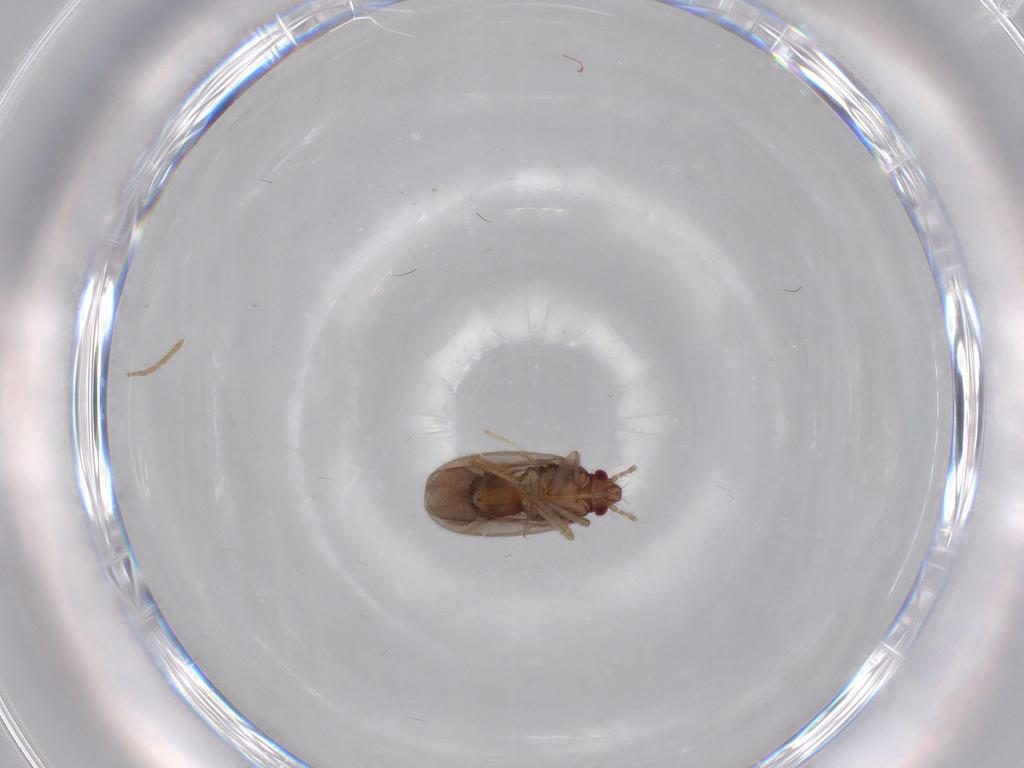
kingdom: Animalia
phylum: Arthropoda
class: Insecta
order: Hemiptera
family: Ceratocombidae
